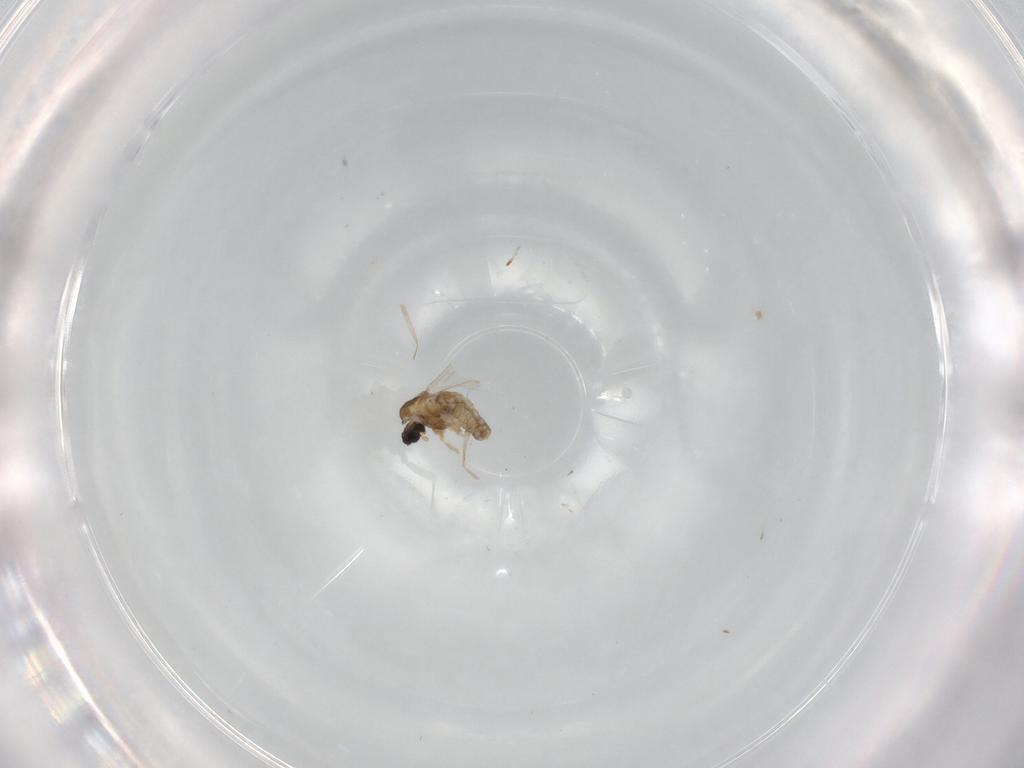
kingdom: Animalia
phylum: Arthropoda
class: Insecta
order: Diptera
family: Cecidomyiidae
